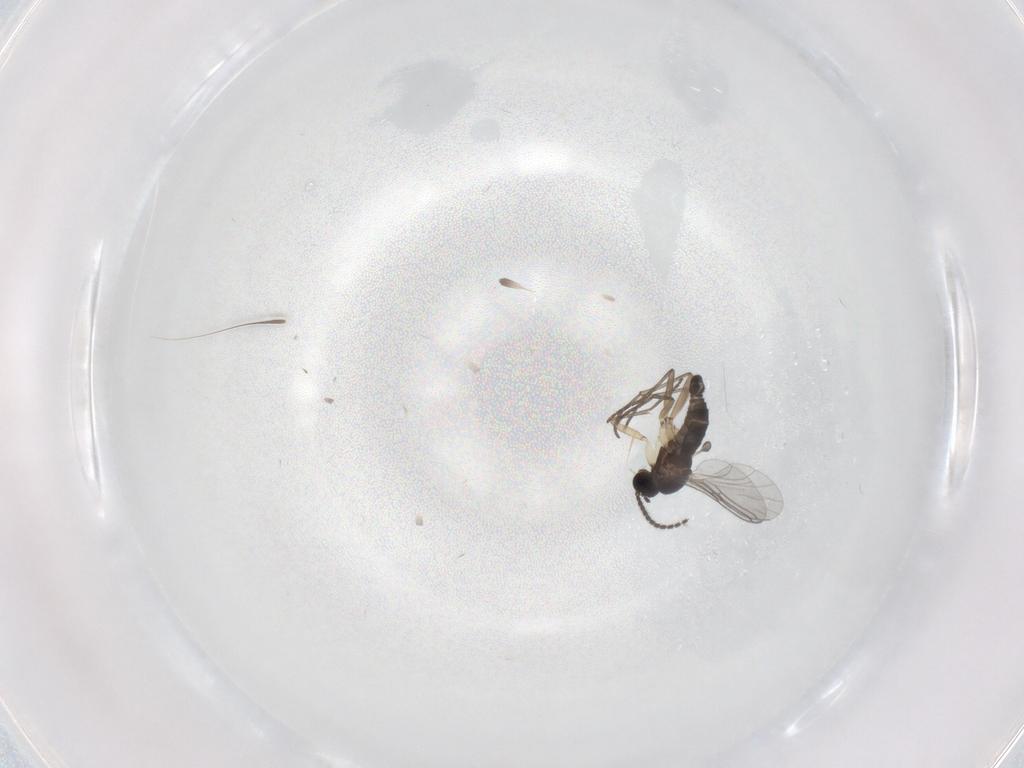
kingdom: Animalia
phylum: Arthropoda
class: Insecta
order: Diptera
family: Sciaridae
